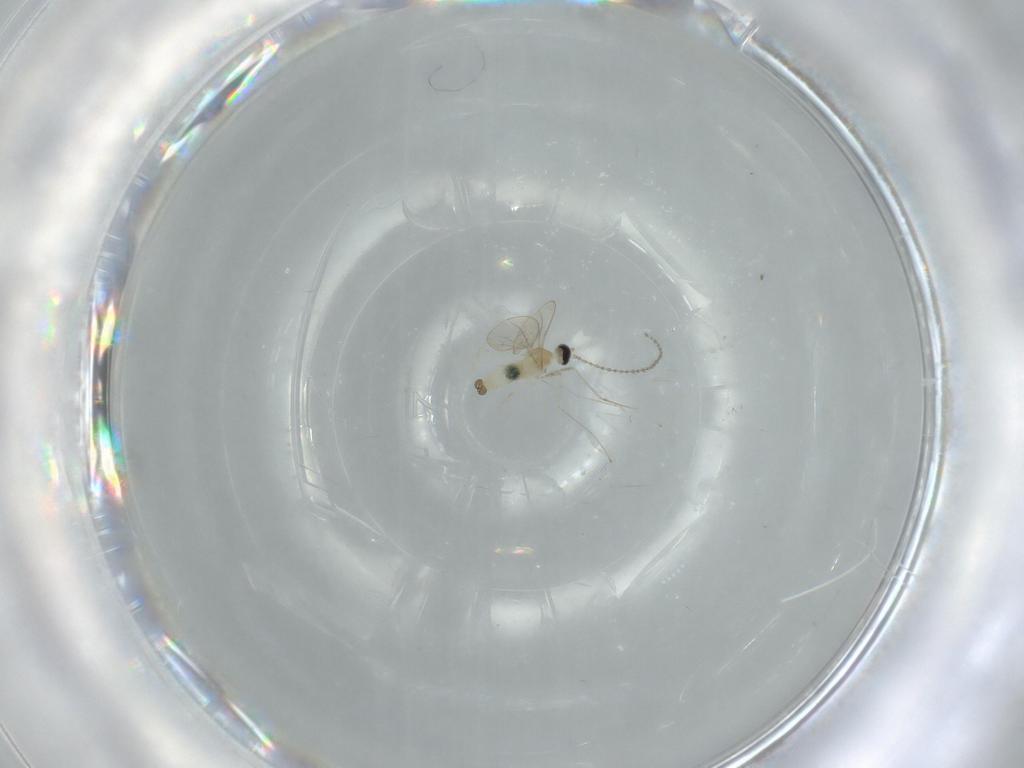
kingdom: Animalia
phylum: Arthropoda
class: Insecta
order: Diptera
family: Cecidomyiidae
